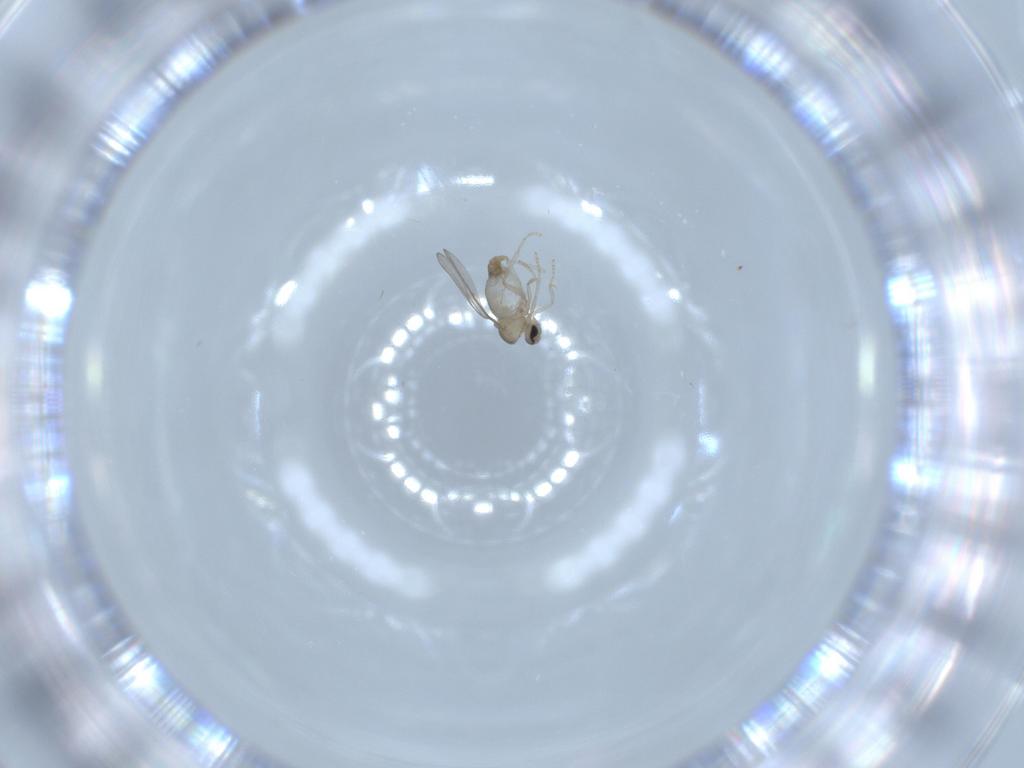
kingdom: Animalia
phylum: Arthropoda
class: Insecta
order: Diptera
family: Cecidomyiidae
